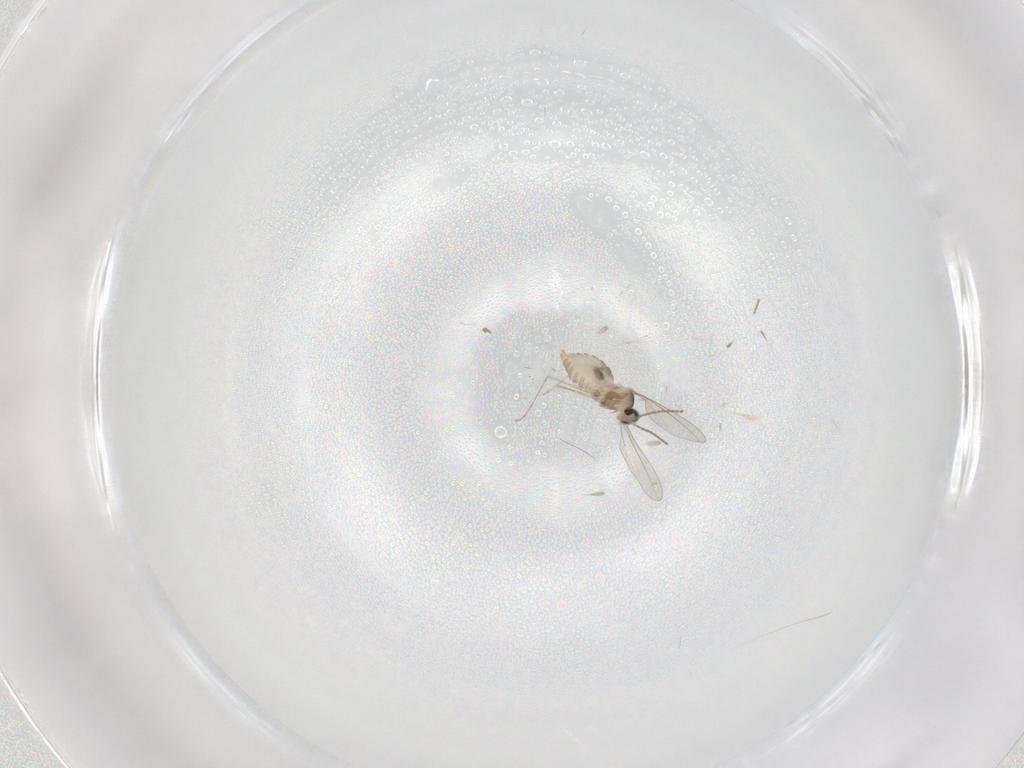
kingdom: Animalia
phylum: Arthropoda
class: Insecta
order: Diptera
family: Cecidomyiidae
